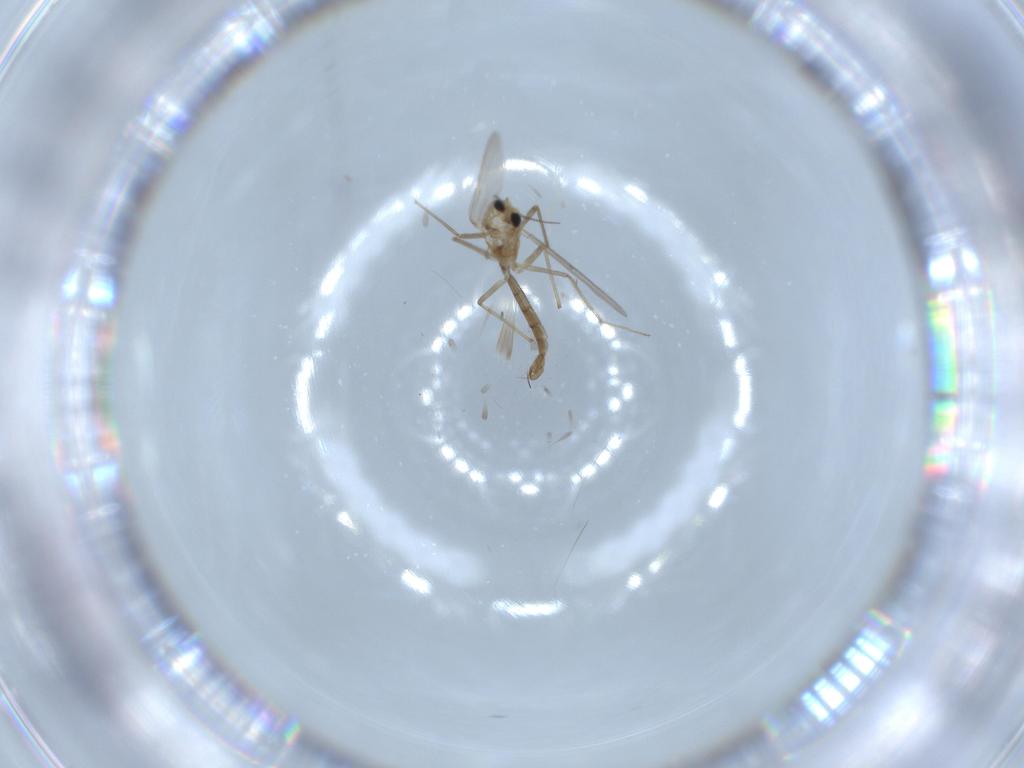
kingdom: Animalia
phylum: Arthropoda
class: Insecta
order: Diptera
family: Chironomidae
